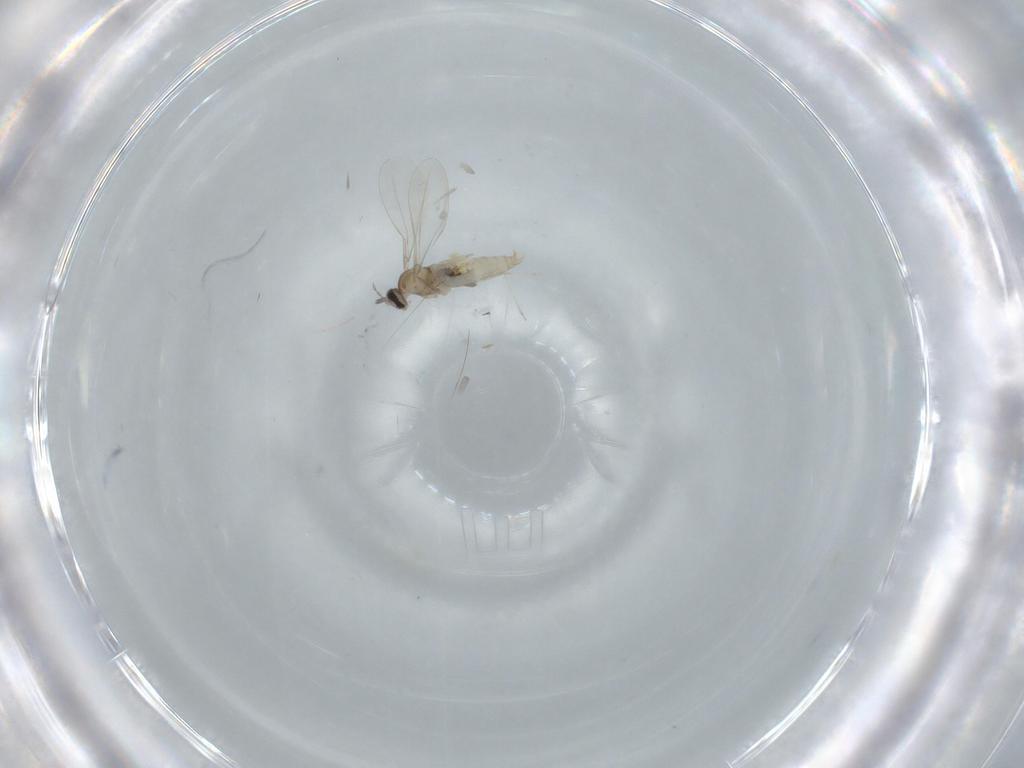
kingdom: Animalia
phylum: Arthropoda
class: Insecta
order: Diptera
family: Cecidomyiidae
